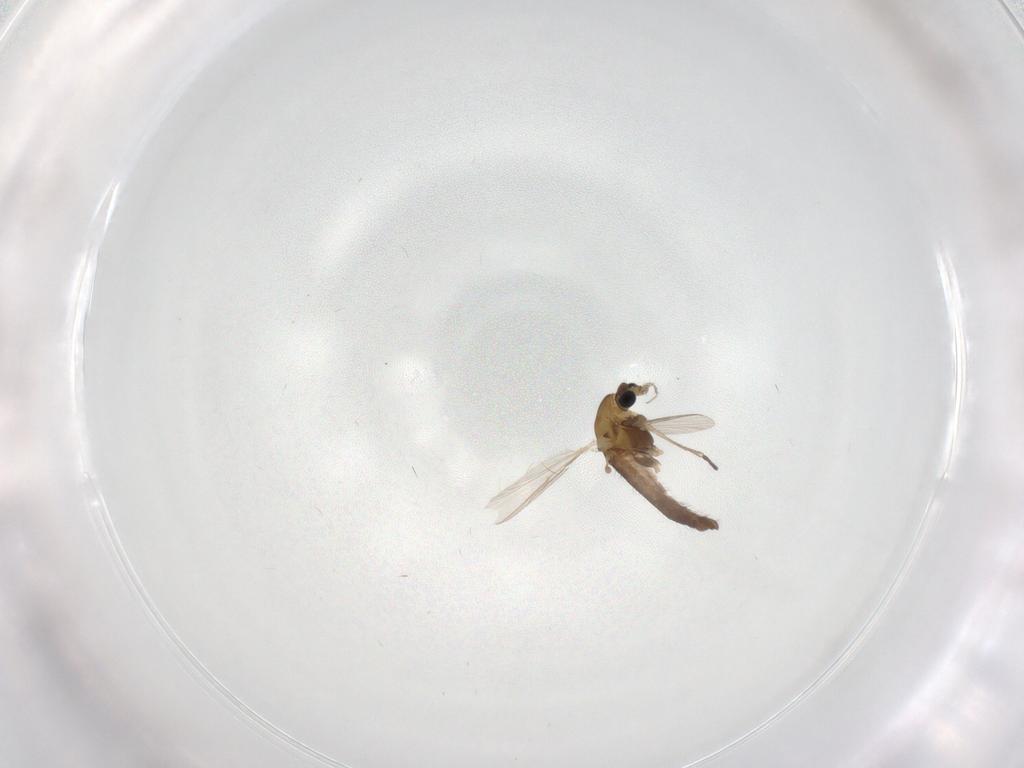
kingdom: Animalia
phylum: Arthropoda
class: Insecta
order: Diptera
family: Chironomidae
